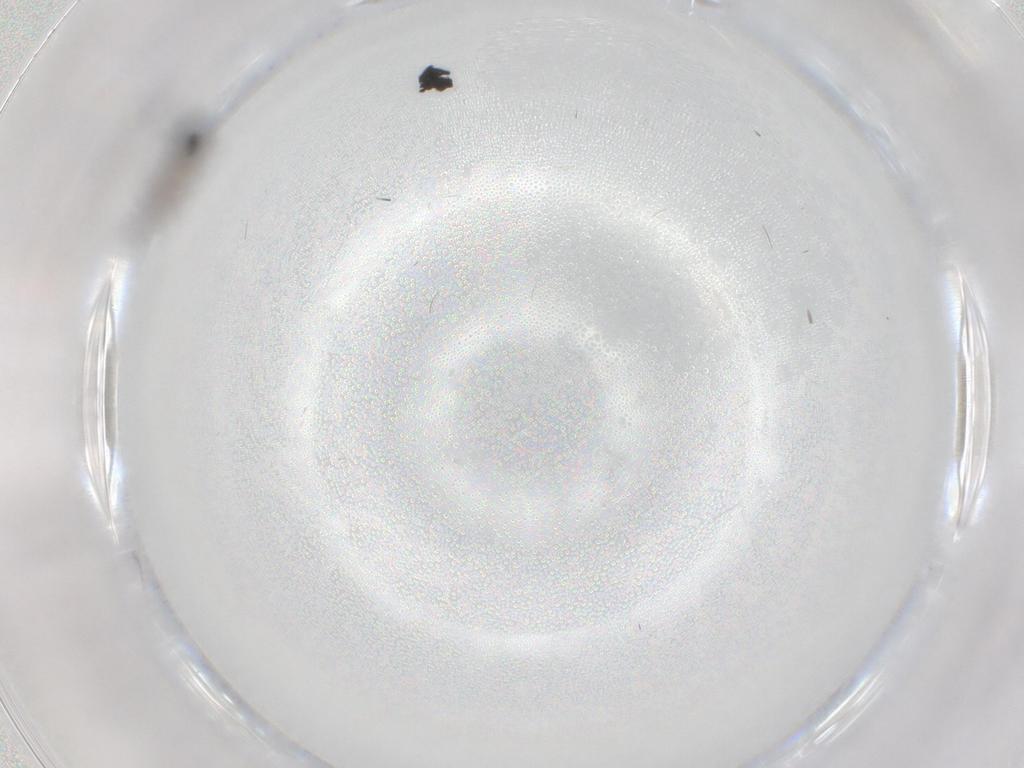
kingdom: Animalia
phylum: Arthropoda
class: Insecta
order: Diptera
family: Sciaridae
